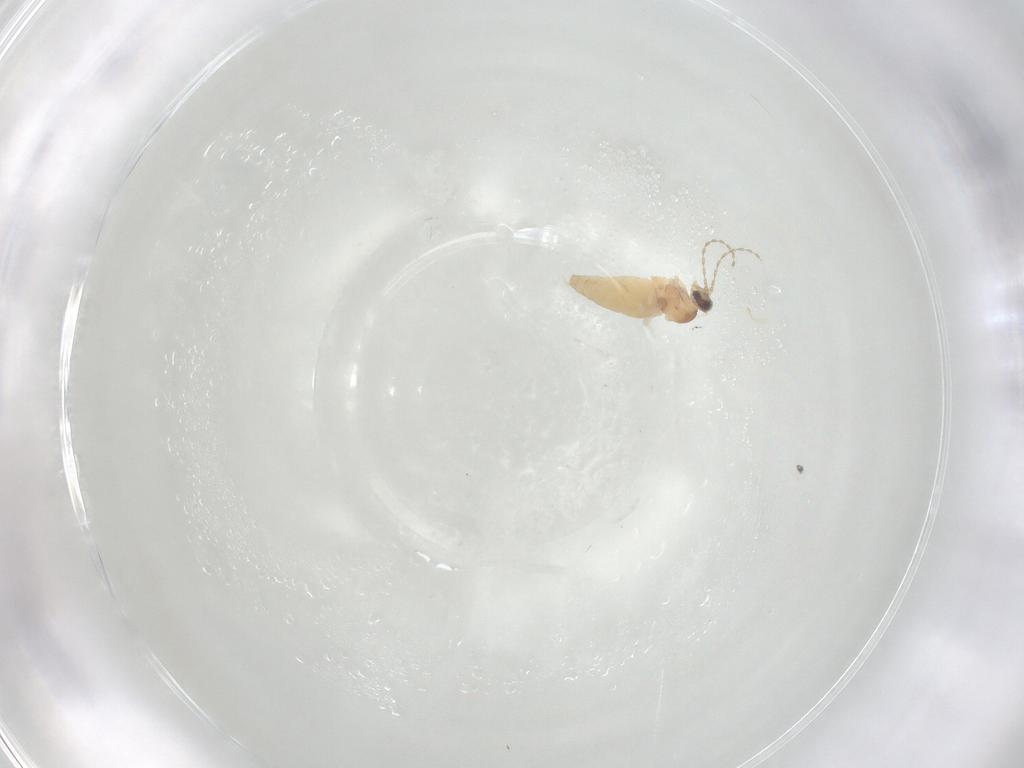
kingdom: Animalia
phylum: Arthropoda
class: Insecta
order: Diptera
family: Cecidomyiidae
